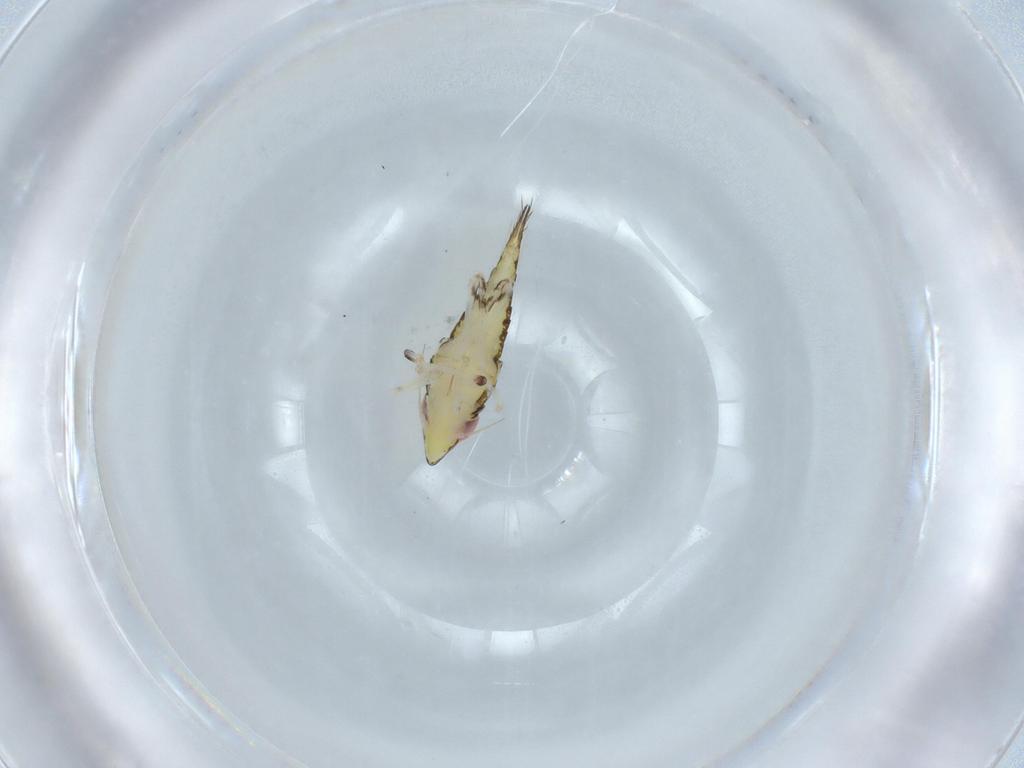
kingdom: Animalia
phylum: Arthropoda
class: Insecta
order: Hemiptera
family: Cicadellidae
